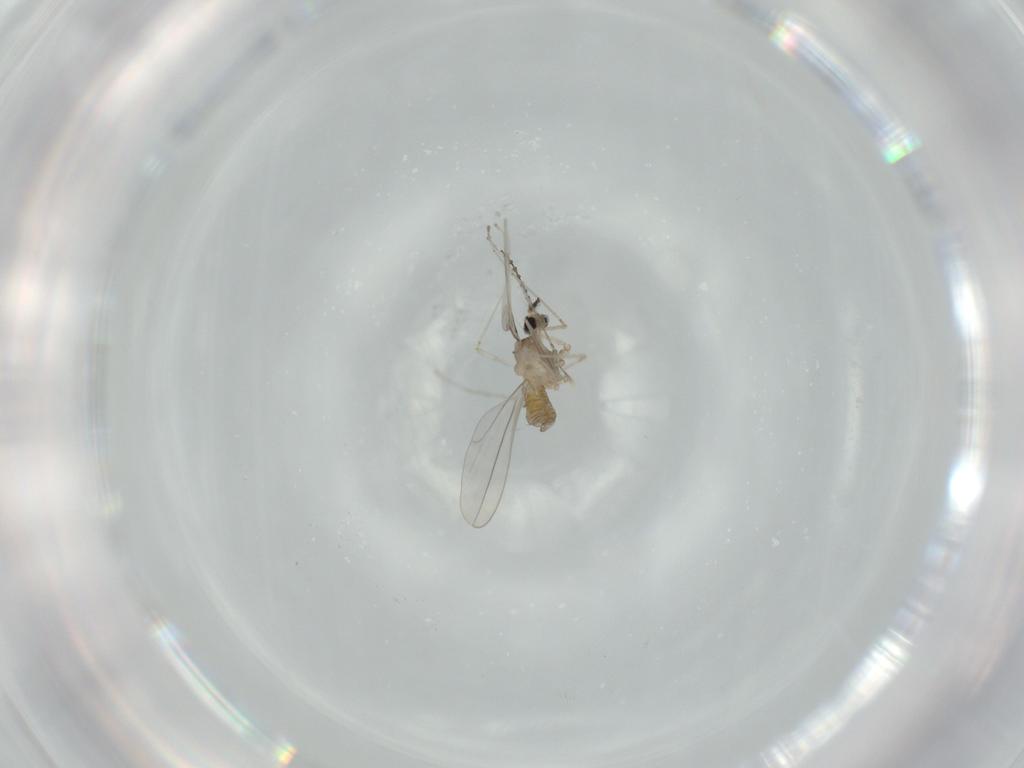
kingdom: Animalia
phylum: Arthropoda
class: Insecta
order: Diptera
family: Cecidomyiidae
